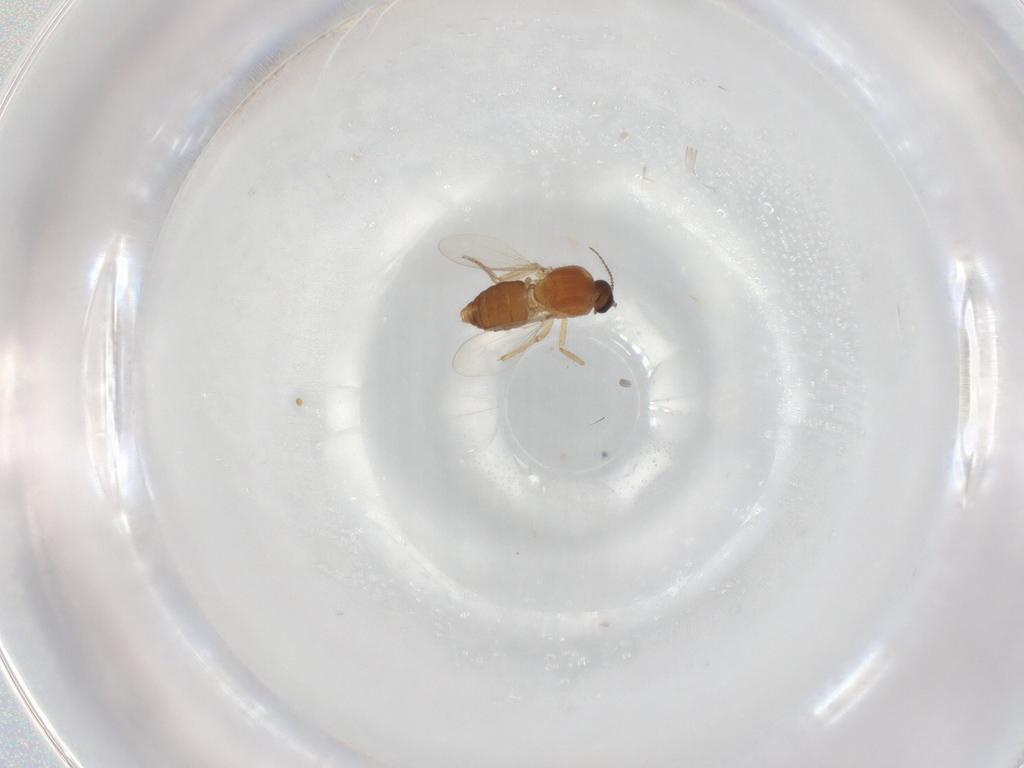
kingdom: Animalia
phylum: Arthropoda
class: Insecta
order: Diptera
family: Ceratopogonidae
